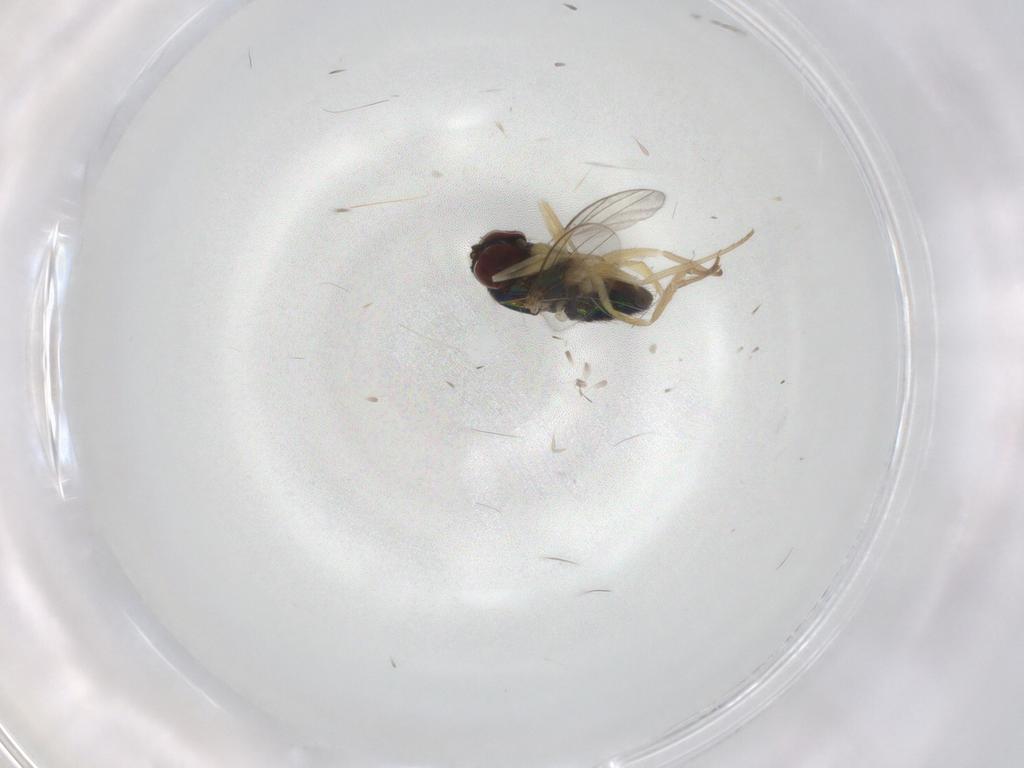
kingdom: Animalia
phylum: Arthropoda
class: Insecta
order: Diptera
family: Dolichopodidae
